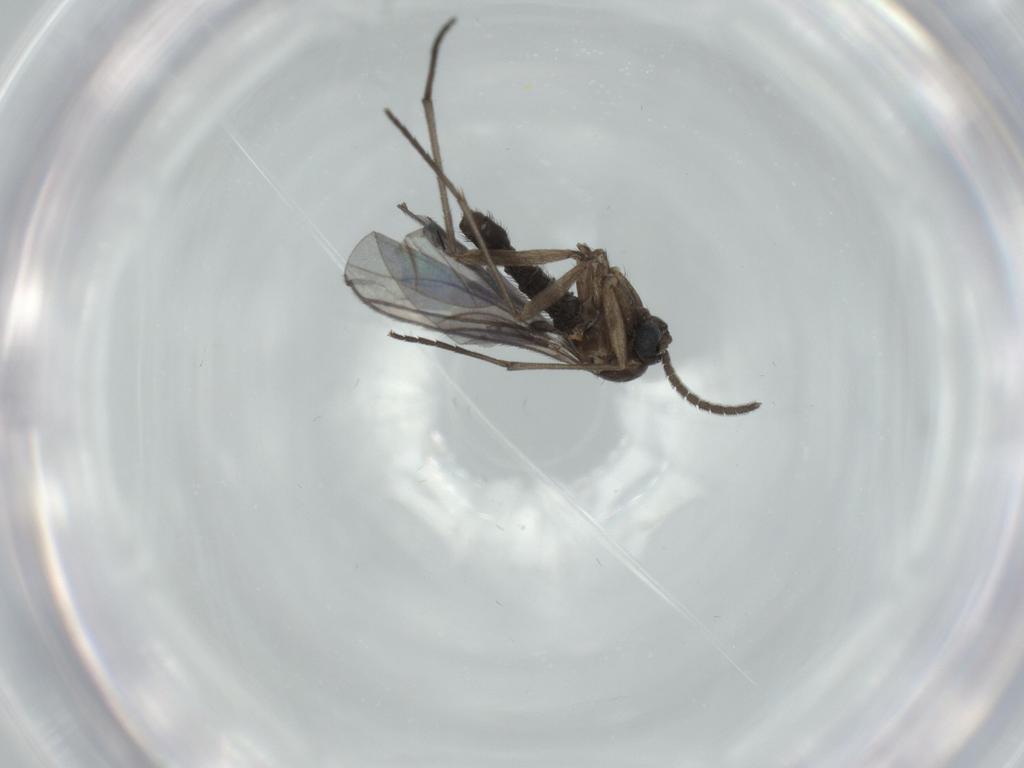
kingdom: Animalia
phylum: Arthropoda
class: Insecta
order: Diptera
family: Sciaridae
